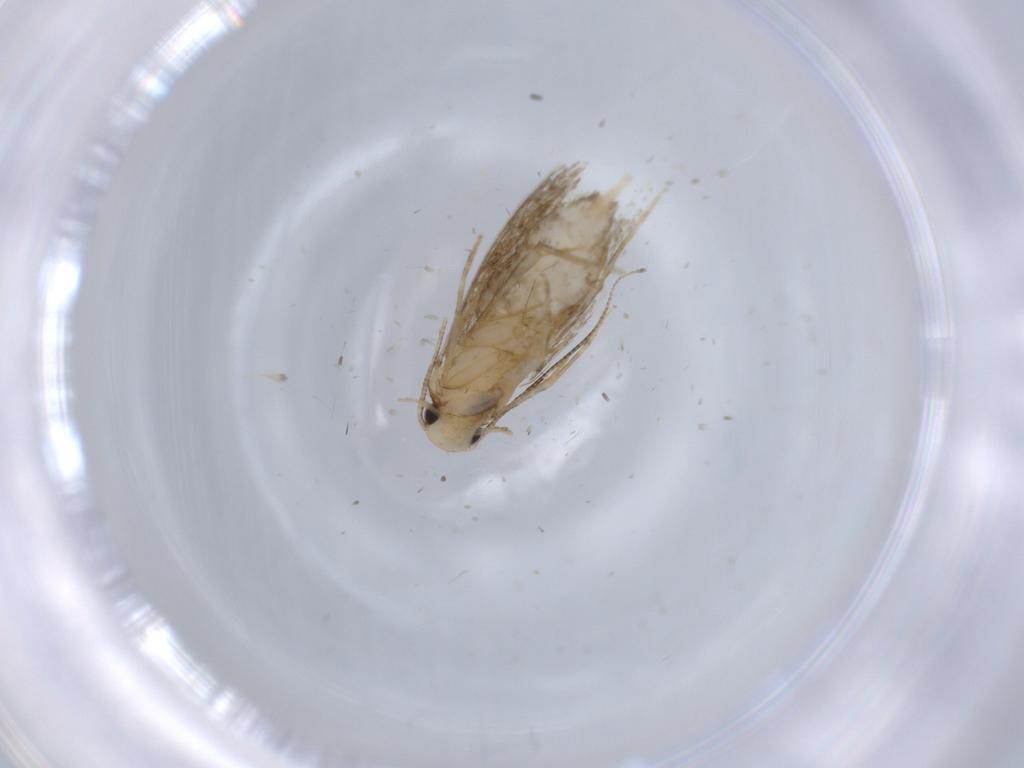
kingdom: Animalia
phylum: Arthropoda
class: Insecta
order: Lepidoptera
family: Tineidae
